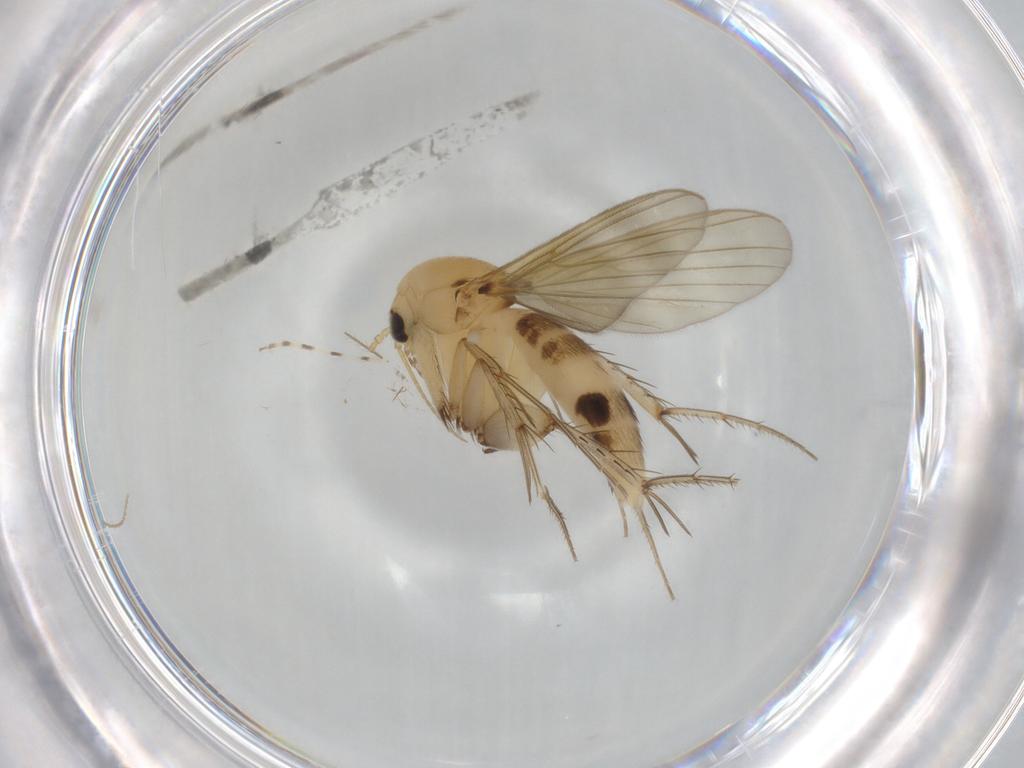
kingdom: Animalia
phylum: Arthropoda
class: Insecta
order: Diptera
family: Mycetophilidae
